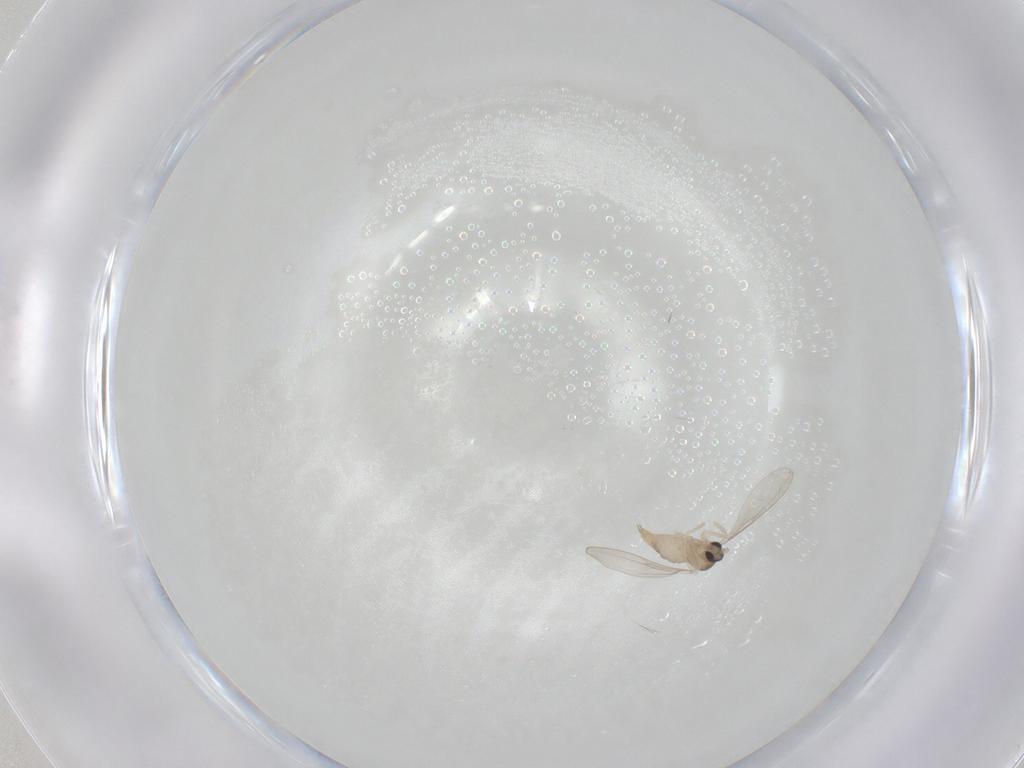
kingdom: Animalia
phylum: Arthropoda
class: Insecta
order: Diptera
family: Cecidomyiidae
